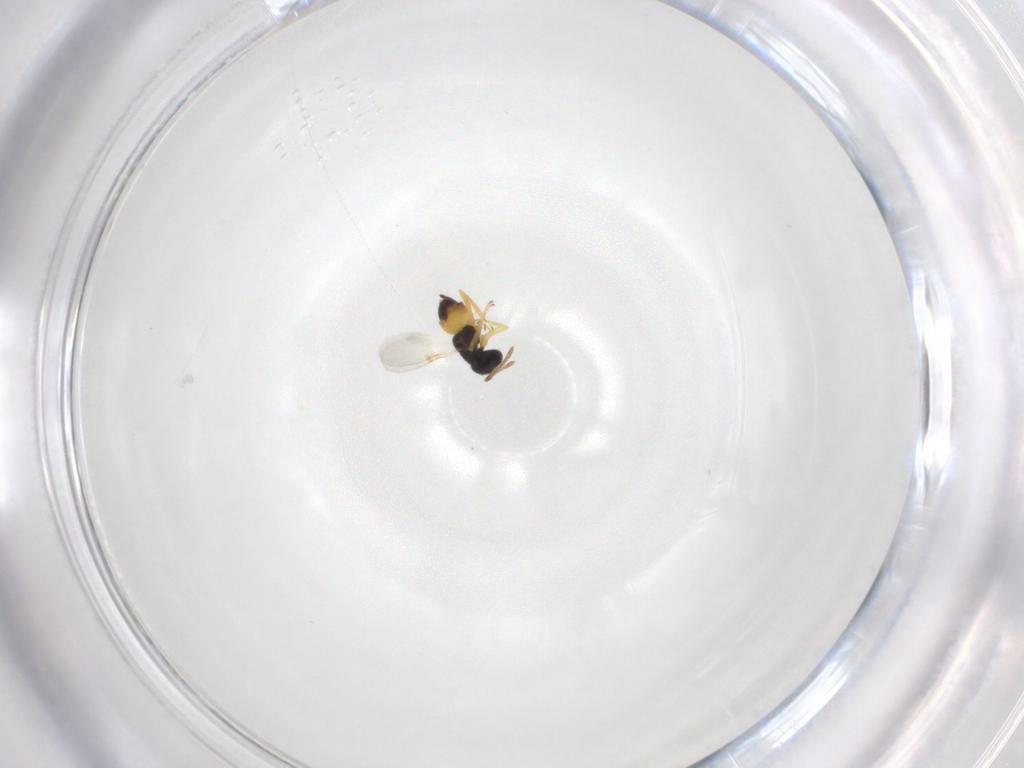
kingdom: Animalia
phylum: Arthropoda
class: Insecta
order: Hymenoptera
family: Encyrtidae
